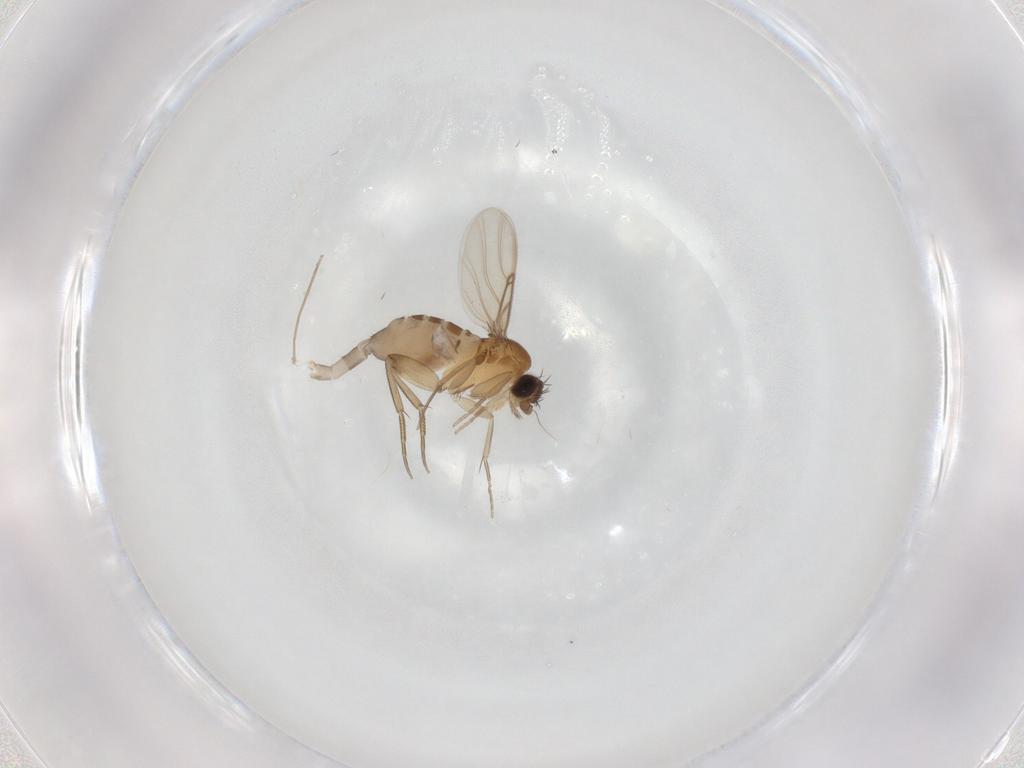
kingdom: Animalia
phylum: Arthropoda
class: Insecta
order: Diptera
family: Phoridae
